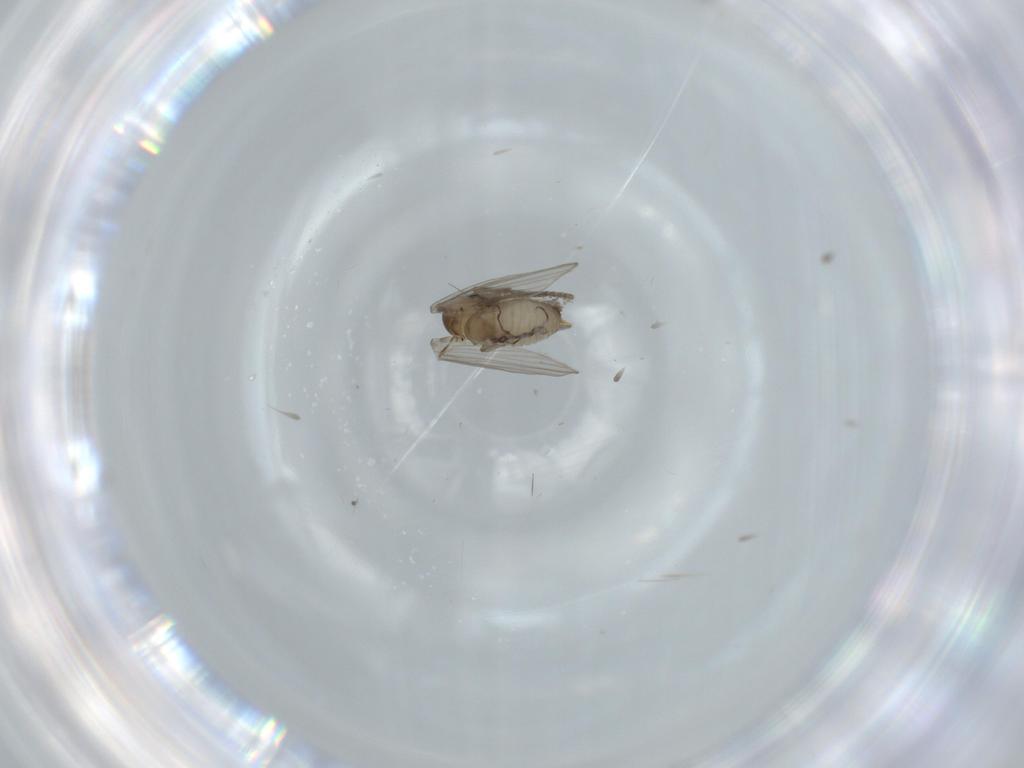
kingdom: Animalia
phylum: Arthropoda
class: Insecta
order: Diptera
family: Psychodidae
